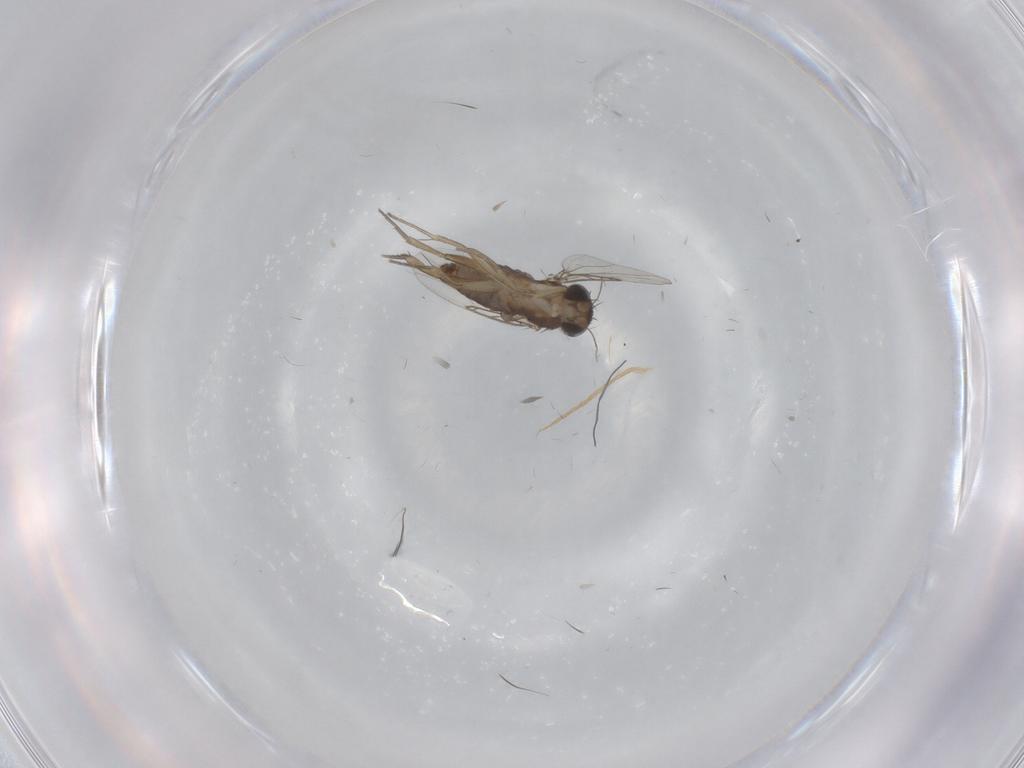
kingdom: Animalia
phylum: Arthropoda
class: Insecta
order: Diptera
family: Phoridae
